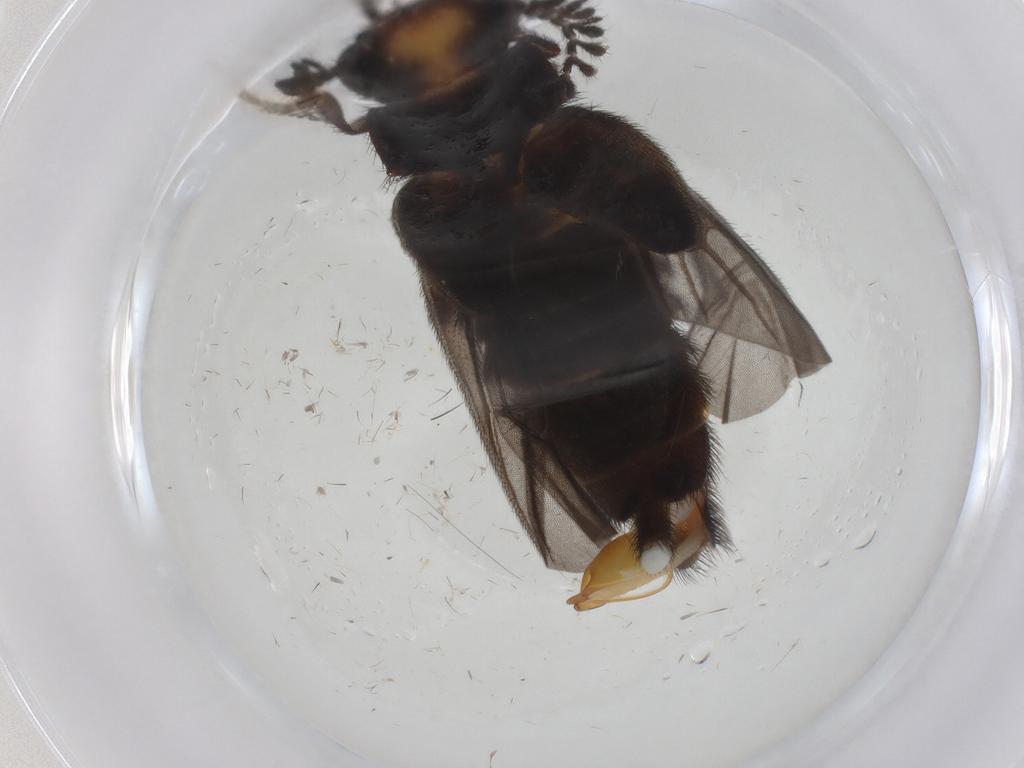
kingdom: Animalia
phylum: Arthropoda
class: Insecta
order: Coleoptera
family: Phengodidae
